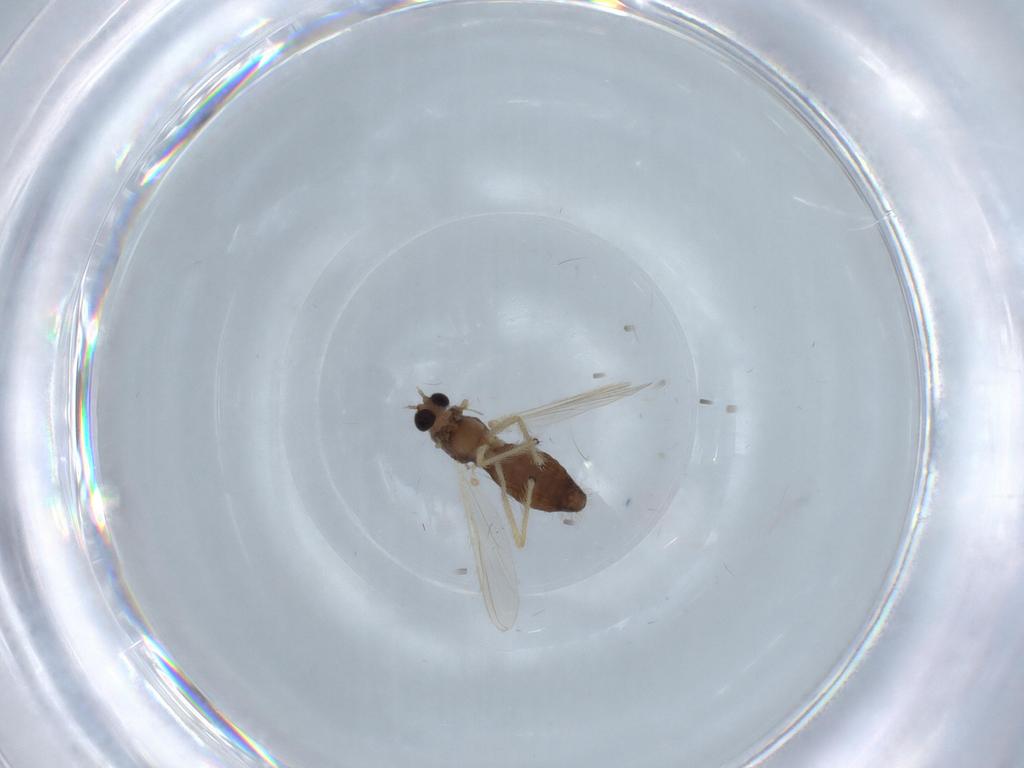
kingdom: Animalia
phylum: Arthropoda
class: Insecta
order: Diptera
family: Chironomidae
